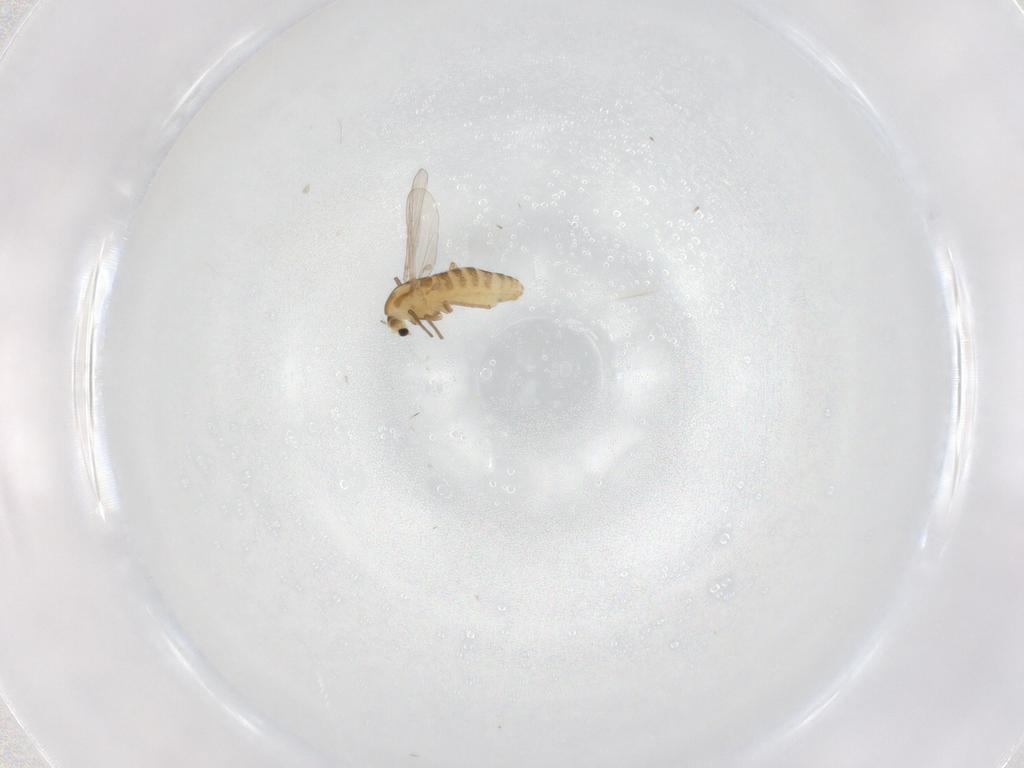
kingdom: Animalia
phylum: Arthropoda
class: Insecta
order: Diptera
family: Chironomidae
